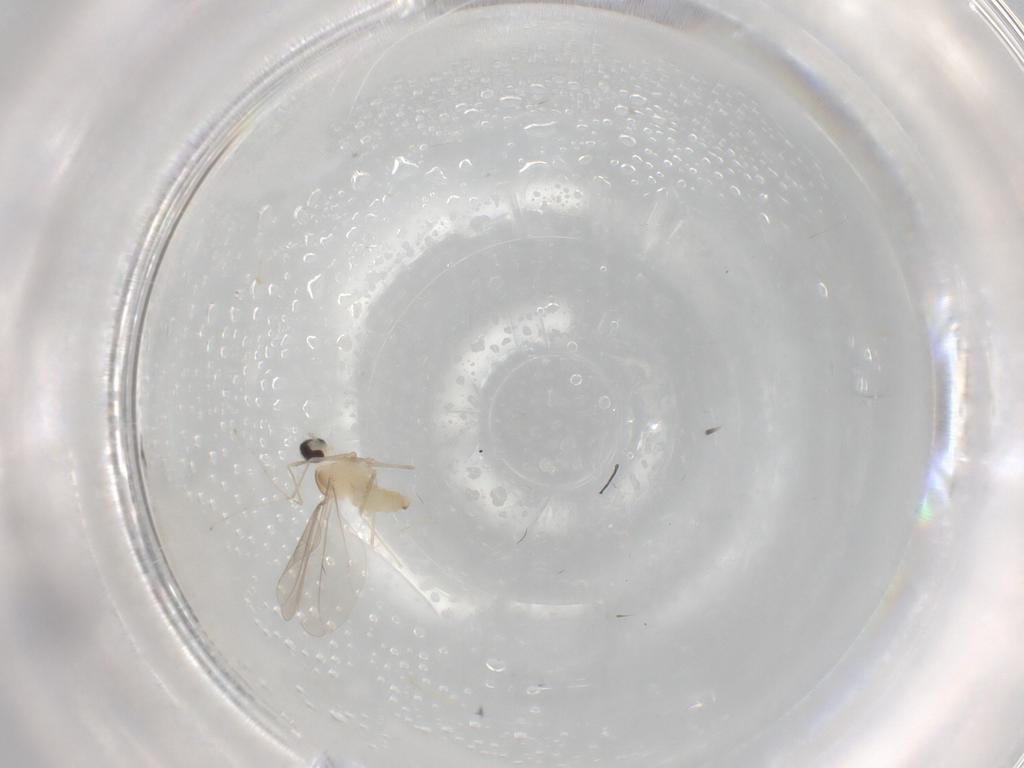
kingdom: Animalia
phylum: Arthropoda
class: Insecta
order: Diptera
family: Cecidomyiidae
